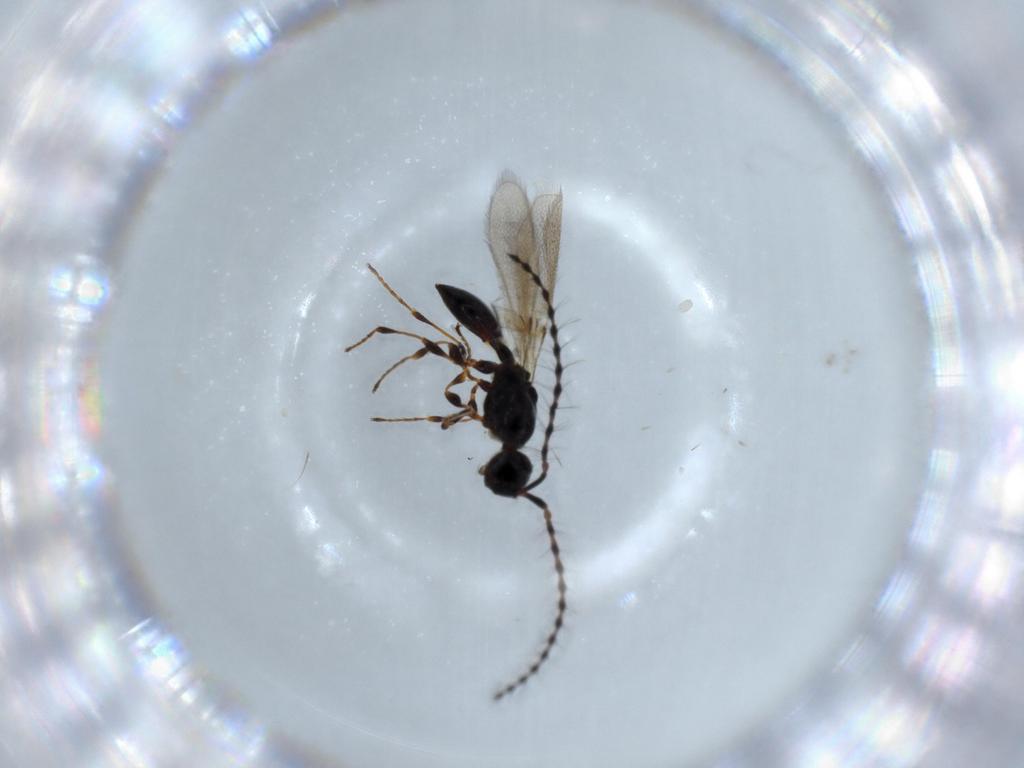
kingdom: Animalia
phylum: Arthropoda
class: Insecta
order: Hymenoptera
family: Diapriidae
